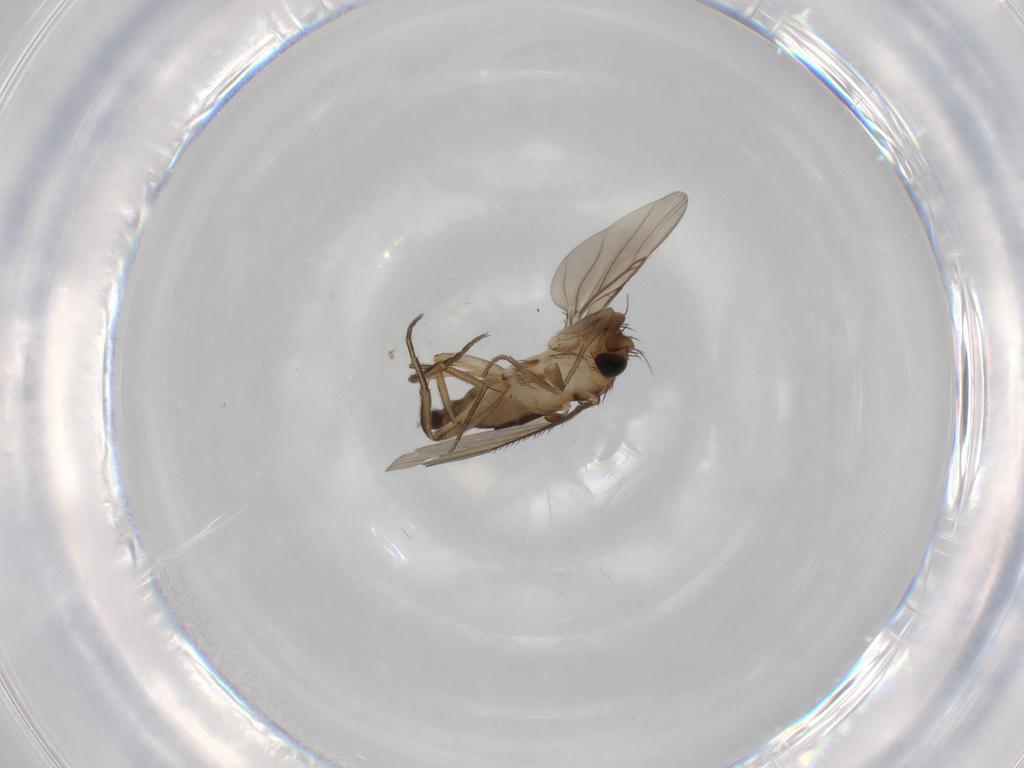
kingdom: Animalia
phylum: Arthropoda
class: Insecta
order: Diptera
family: Phoridae
